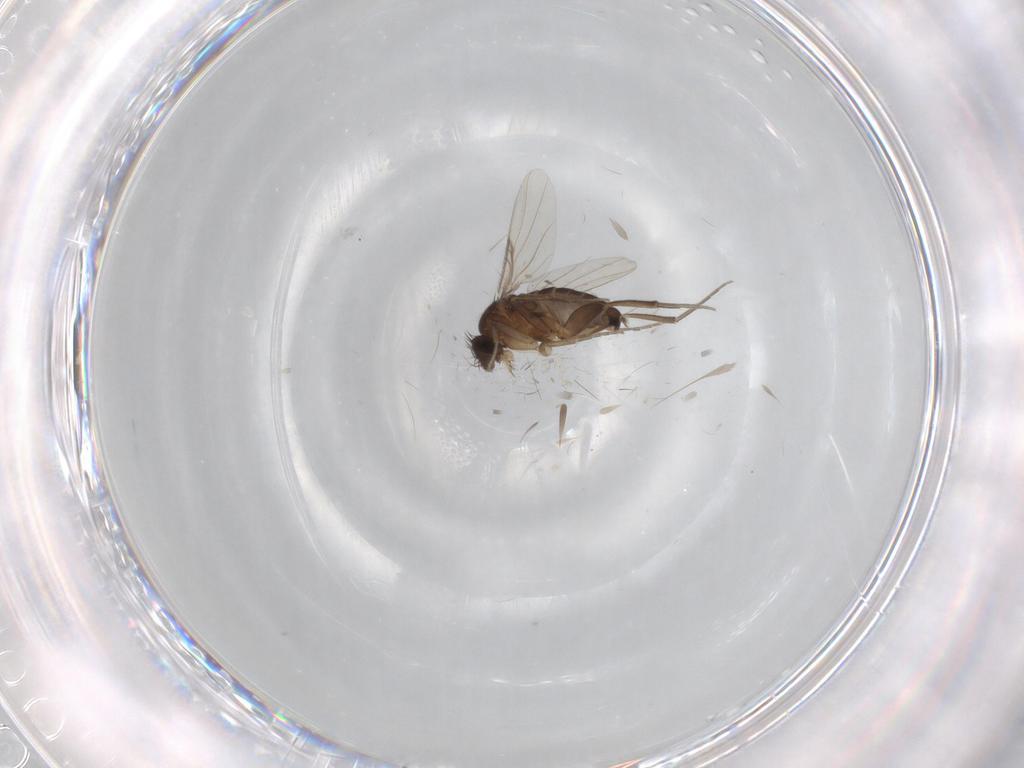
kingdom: Animalia
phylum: Arthropoda
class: Insecta
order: Diptera
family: Phoridae
